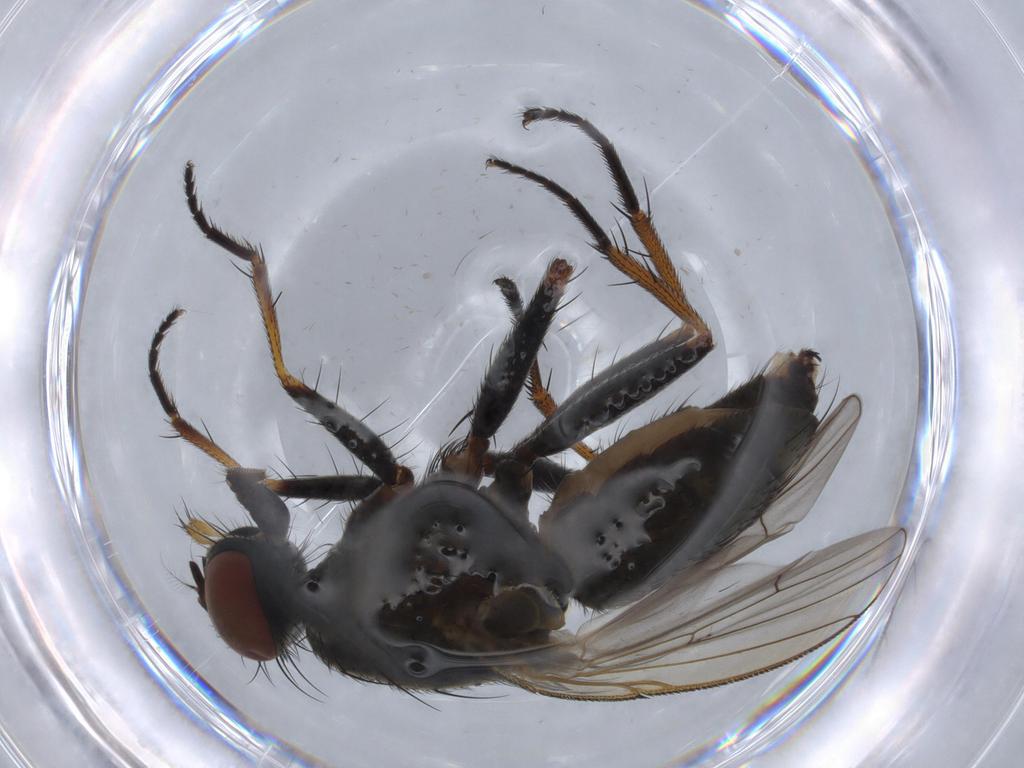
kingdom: Animalia
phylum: Arthropoda
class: Insecta
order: Diptera
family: Muscidae
